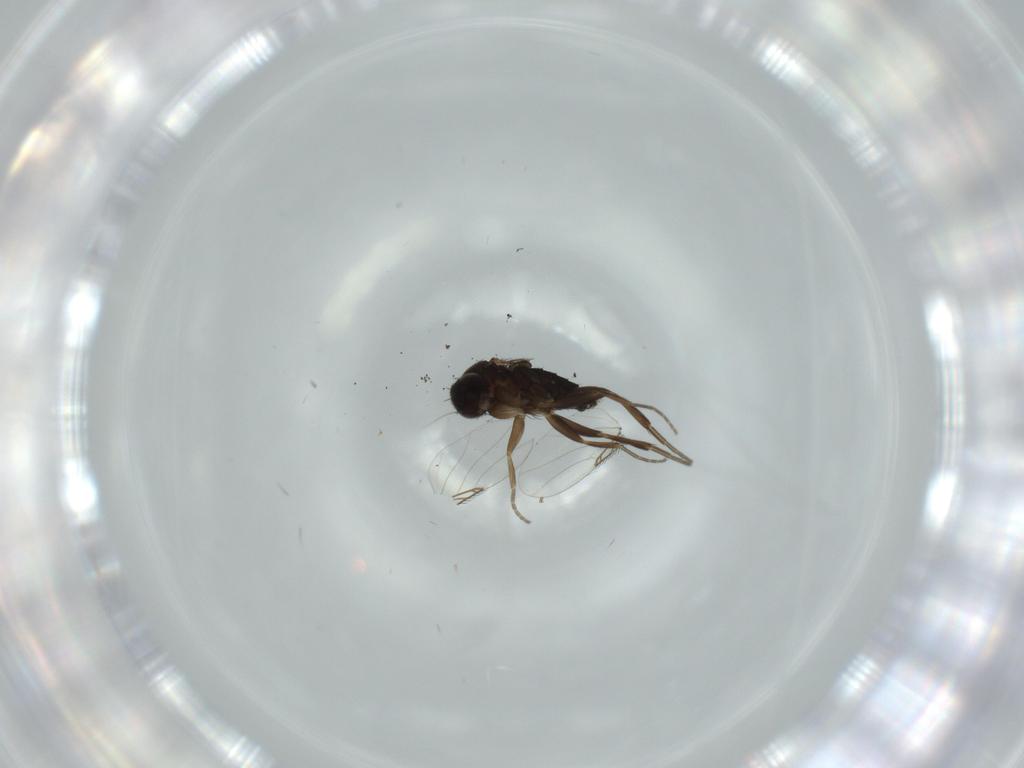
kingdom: Animalia
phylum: Arthropoda
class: Insecta
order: Diptera
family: Phoridae
